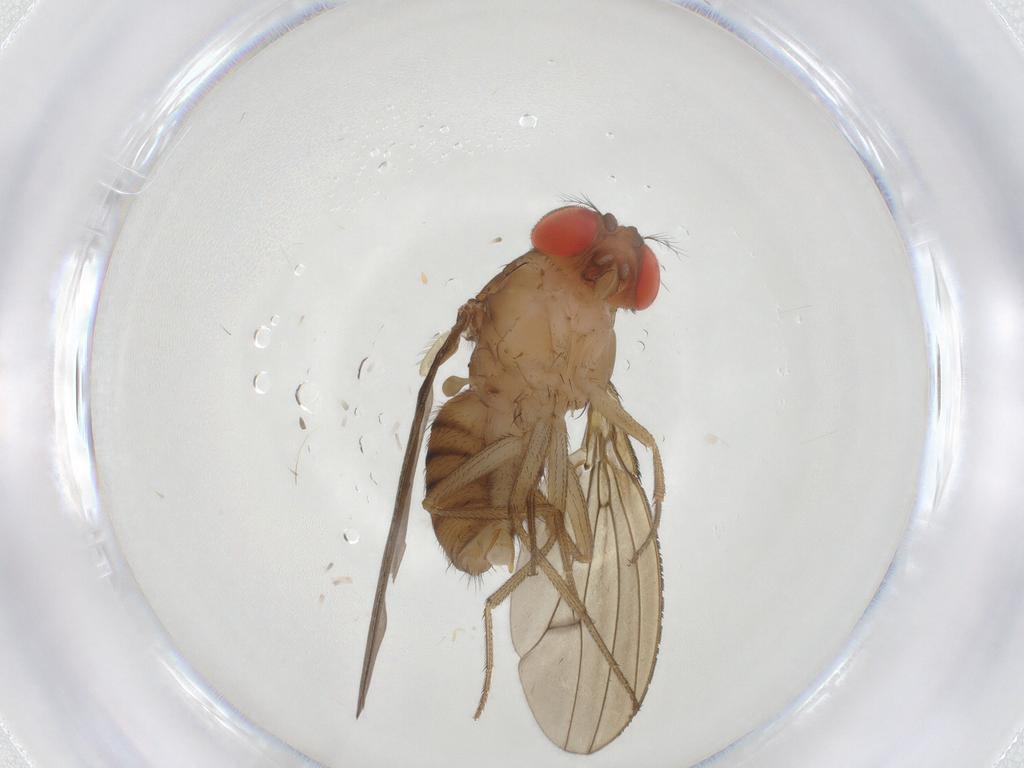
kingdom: Animalia
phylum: Arthropoda
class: Insecta
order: Diptera
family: Drosophilidae
